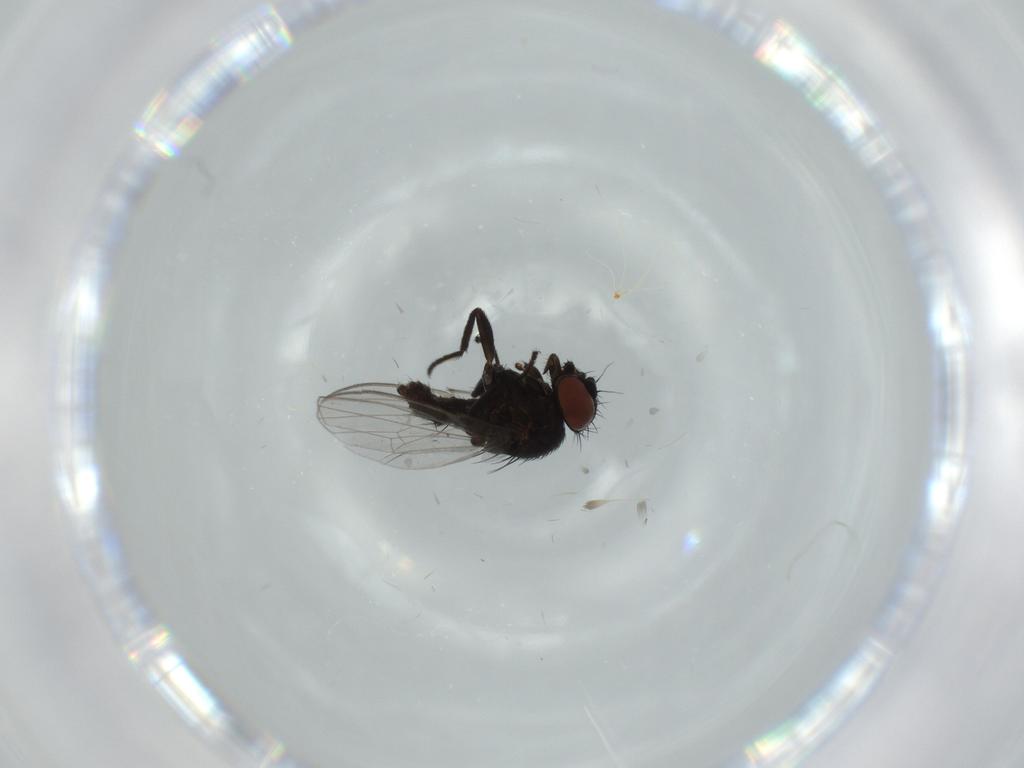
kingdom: Animalia
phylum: Arthropoda
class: Insecta
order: Diptera
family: Milichiidae
